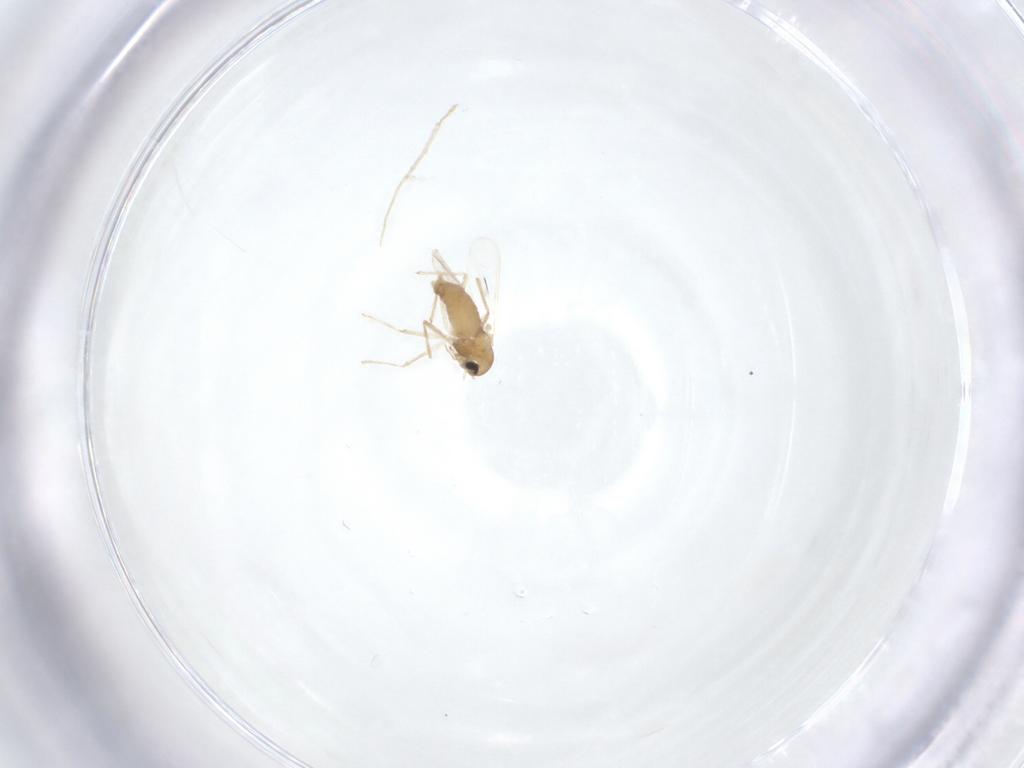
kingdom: Animalia
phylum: Arthropoda
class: Insecta
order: Diptera
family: Chironomidae
